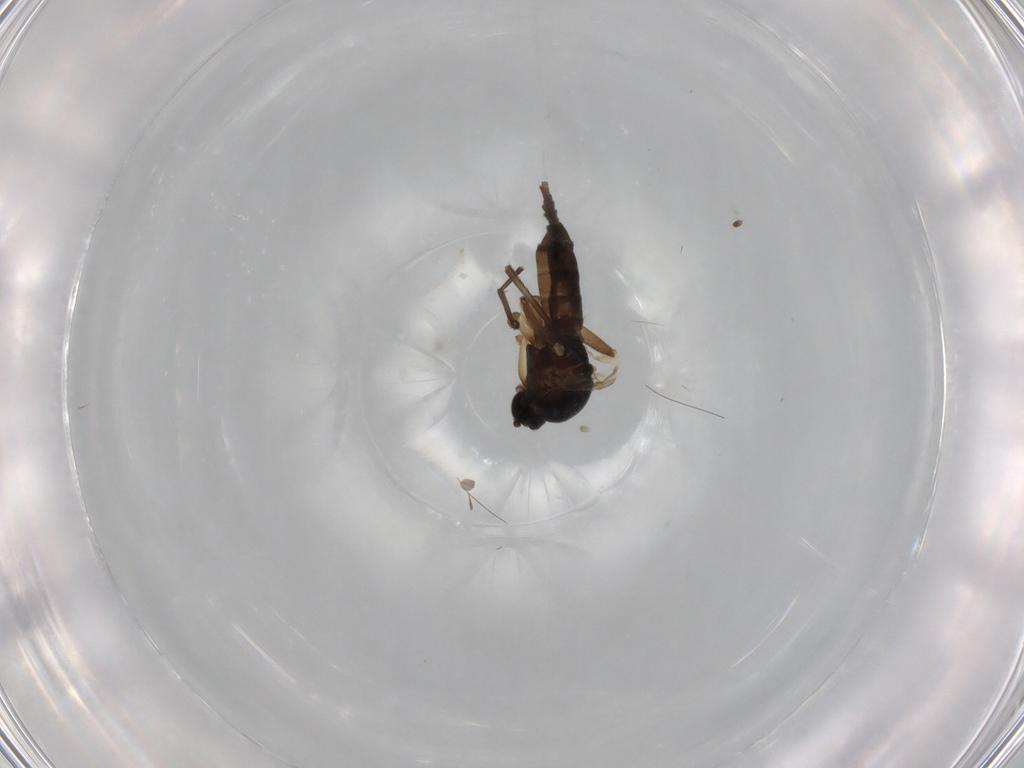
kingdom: Animalia
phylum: Arthropoda
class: Insecta
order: Diptera
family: Sciaridae
